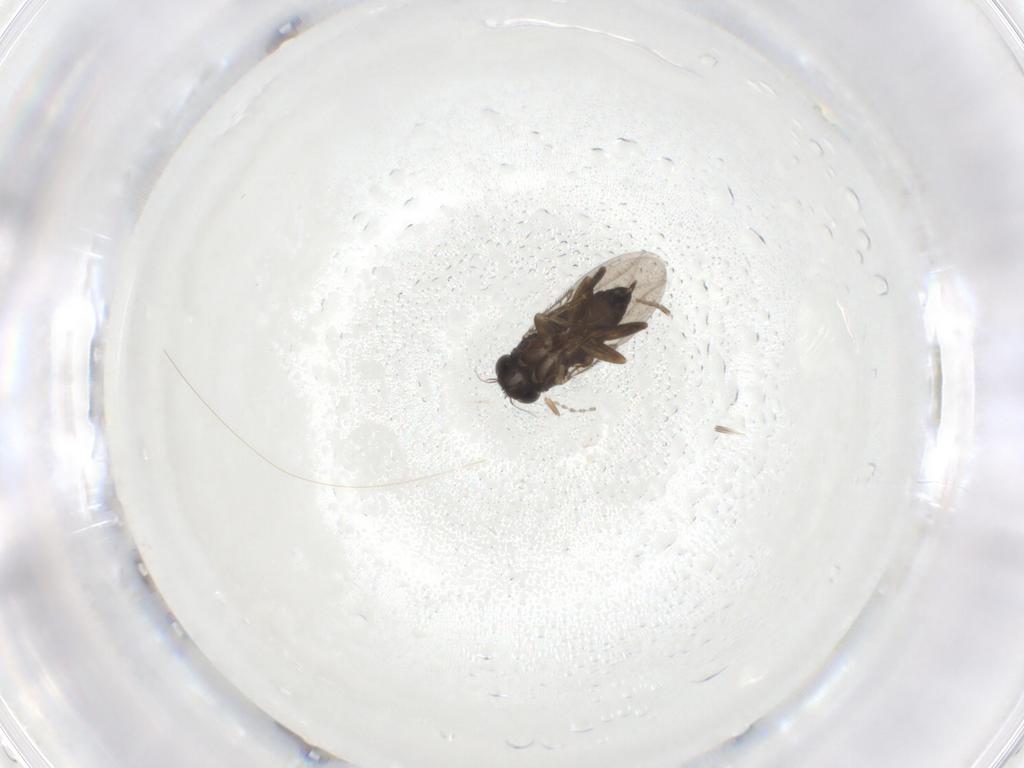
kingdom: Animalia
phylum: Arthropoda
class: Insecta
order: Diptera
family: Phoridae
